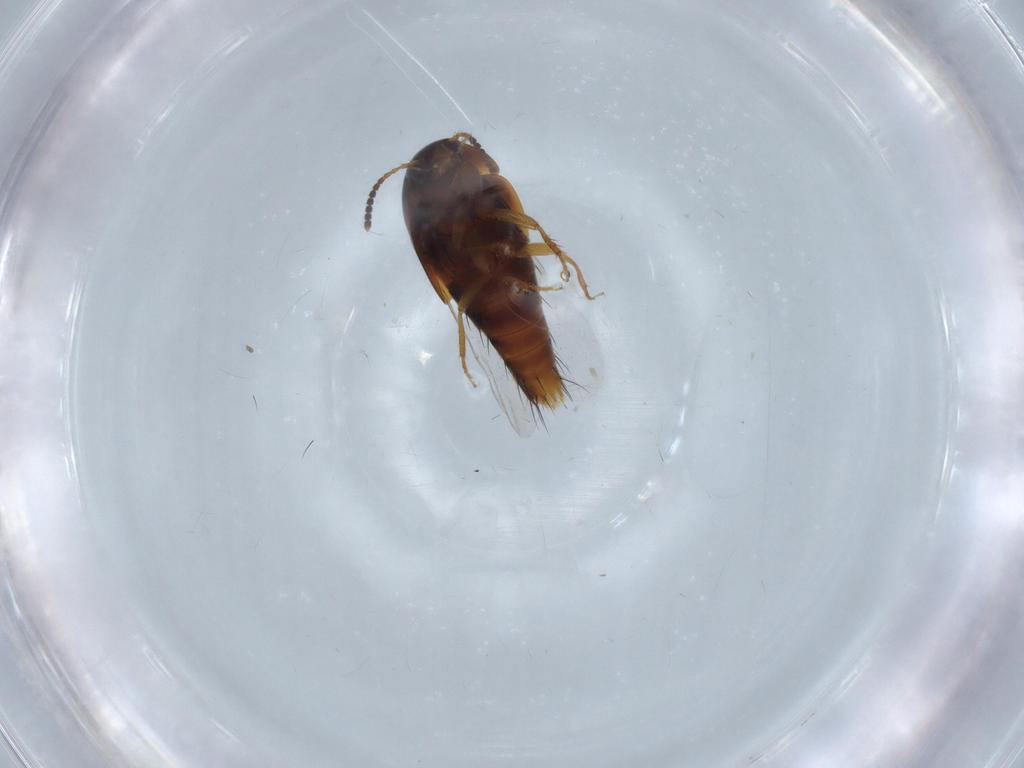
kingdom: Animalia
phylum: Arthropoda
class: Insecta
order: Coleoptera
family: Staphylinidae
